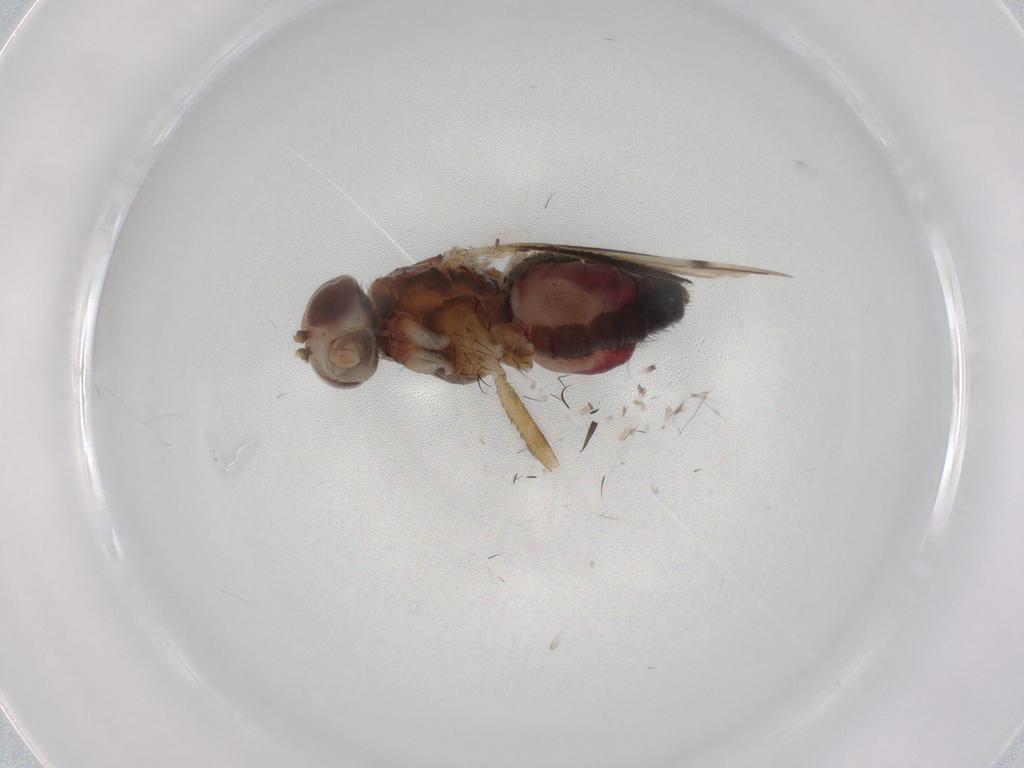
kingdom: Animalia
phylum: Arthropoda
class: Insecta
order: Diptera
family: Heleomyzidae
